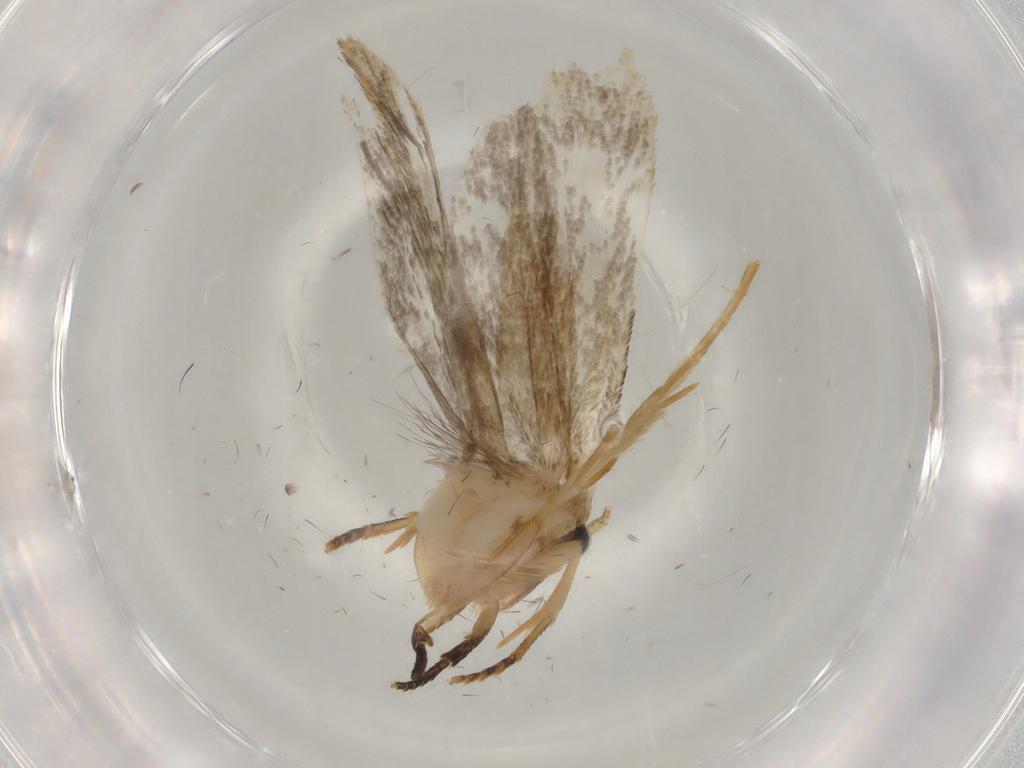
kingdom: Animalia
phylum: Arthropoda
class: Insecta
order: Lepidoptera
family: Tineidae
